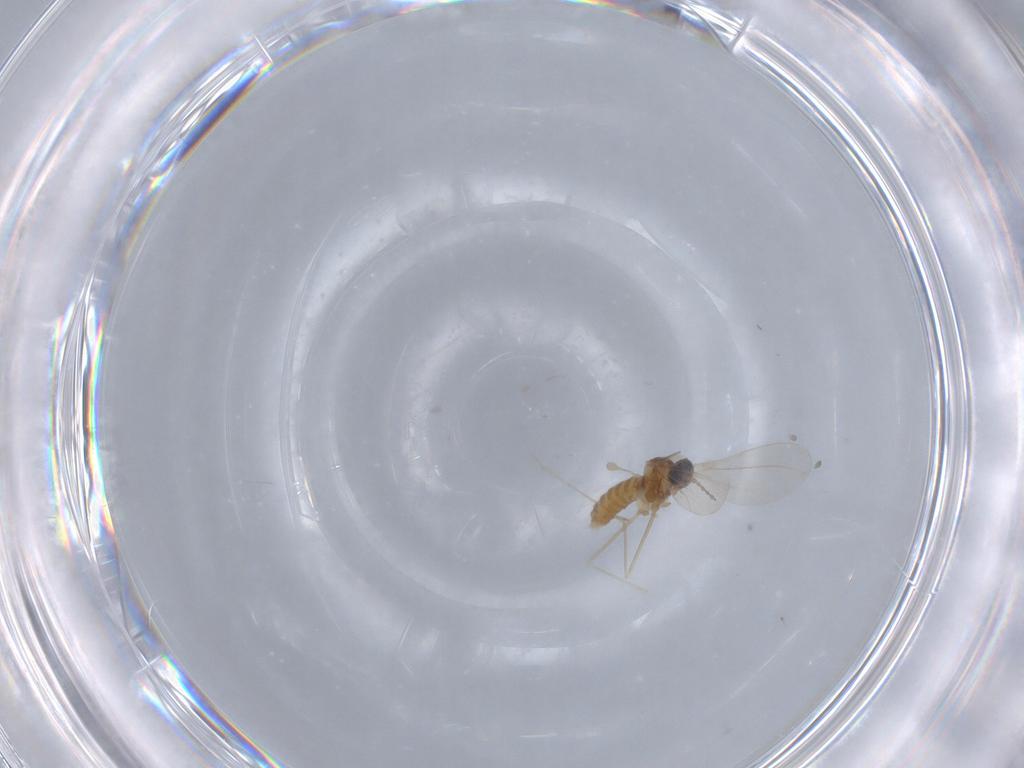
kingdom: Animalia
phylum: Arthropoda
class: Insecta
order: Diptera
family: Cecidomyiidae
